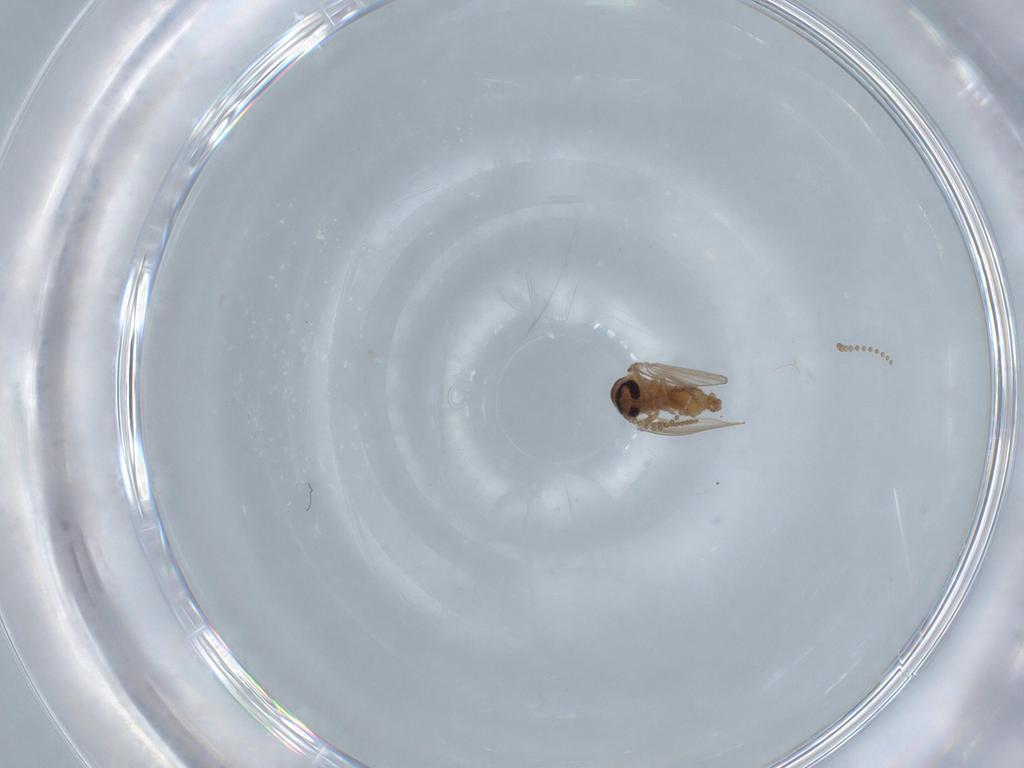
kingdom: Animalia
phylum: Arthropoda
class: Insecta
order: Diptera
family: Psychodidae
